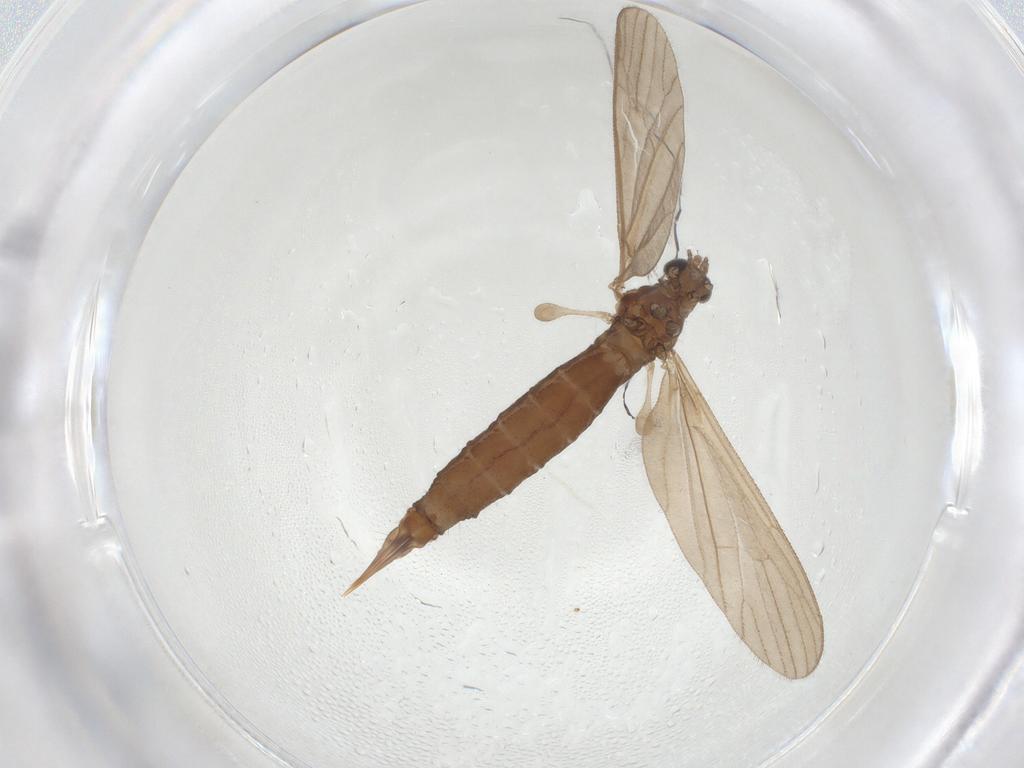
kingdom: Animalia
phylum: Arthropoda
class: Insecta
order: Diptera
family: Limoniidae
